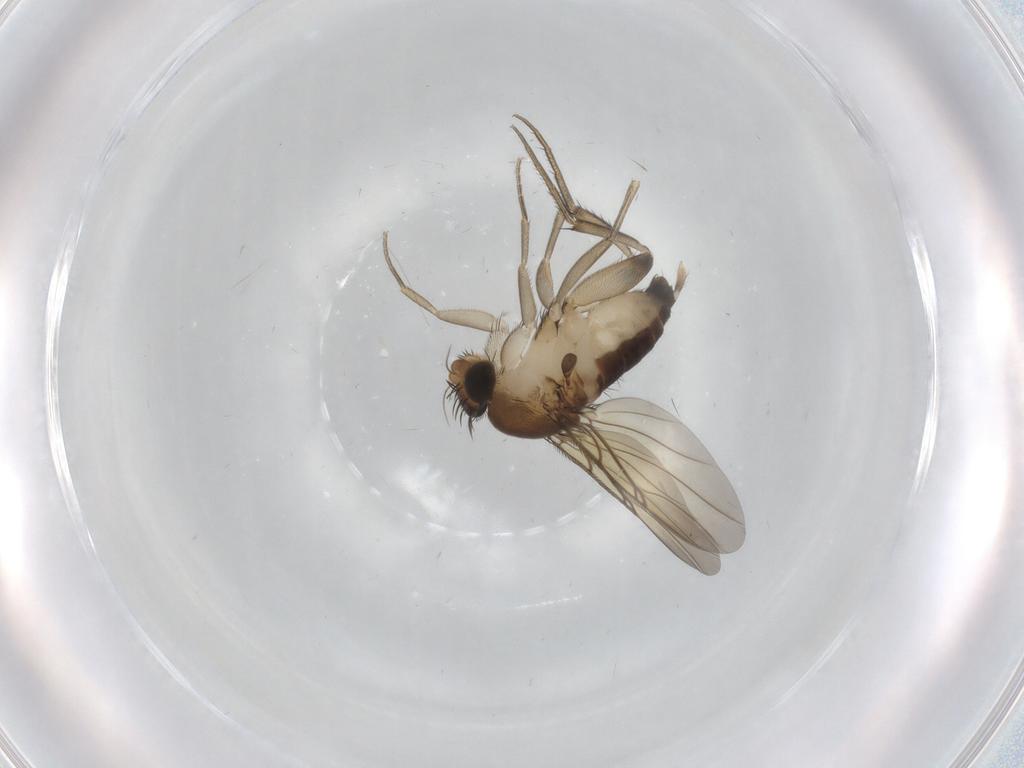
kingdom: Animalia
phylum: Arthropoda
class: Insecta
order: Diptera
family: Phoridae
